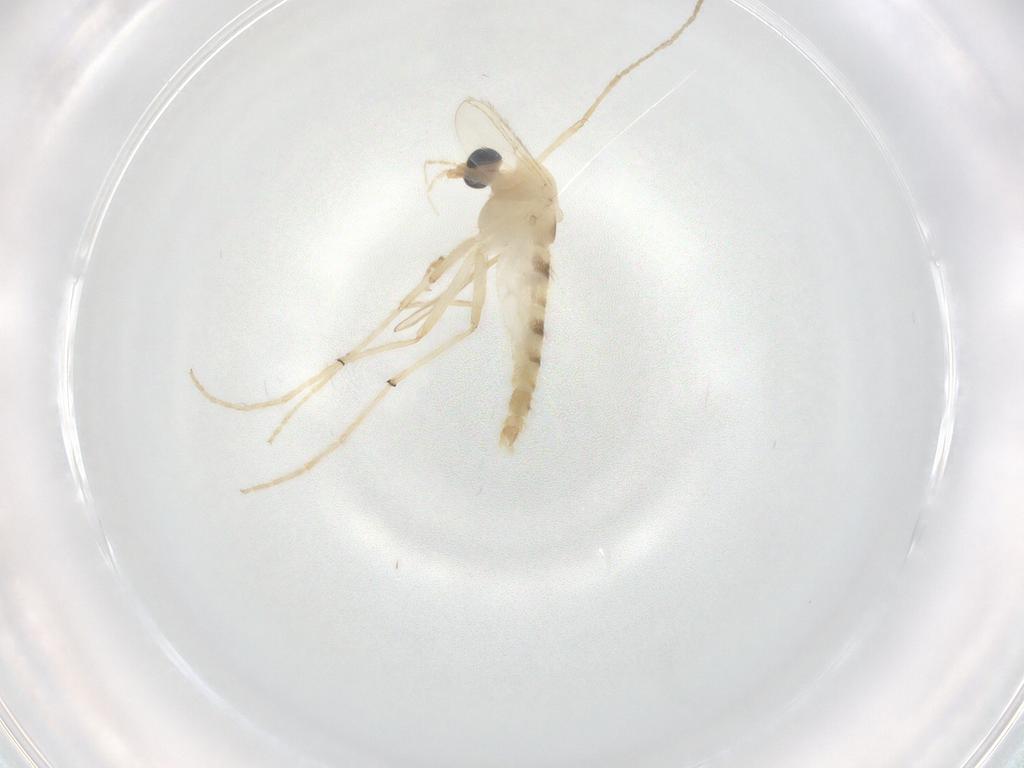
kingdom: Animalia
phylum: Arthropoda
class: Insecta
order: Diptera
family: Chironomidae
